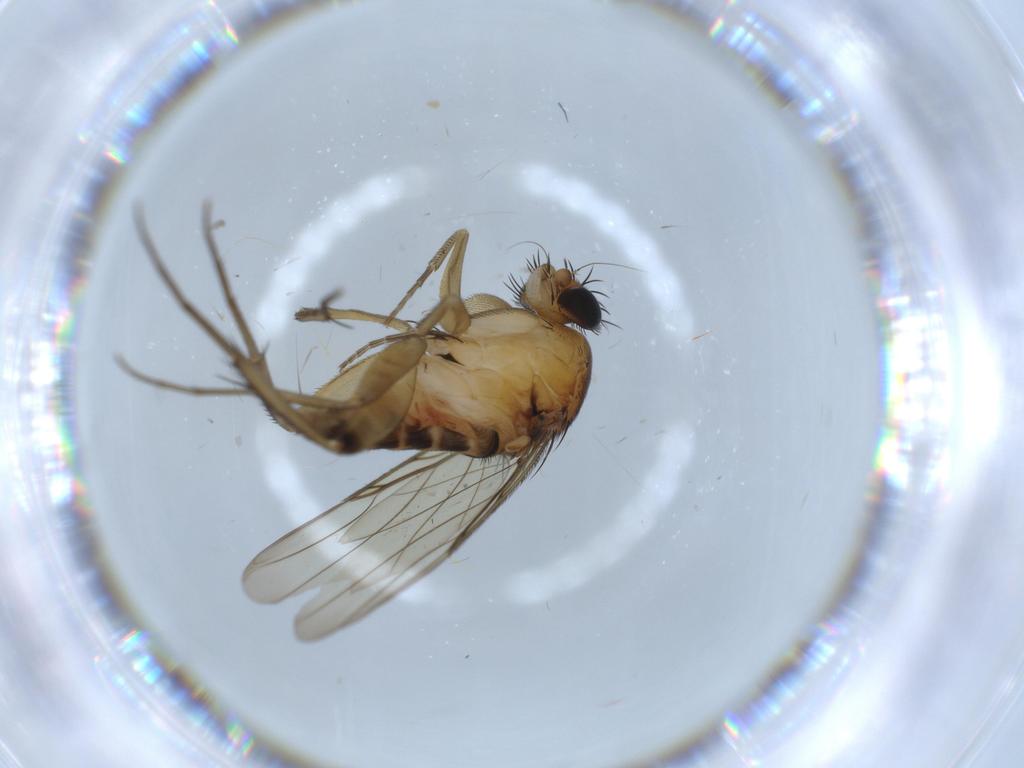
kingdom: Animalia
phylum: Arthropoda
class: Insecta
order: Diptera
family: Phoridae
